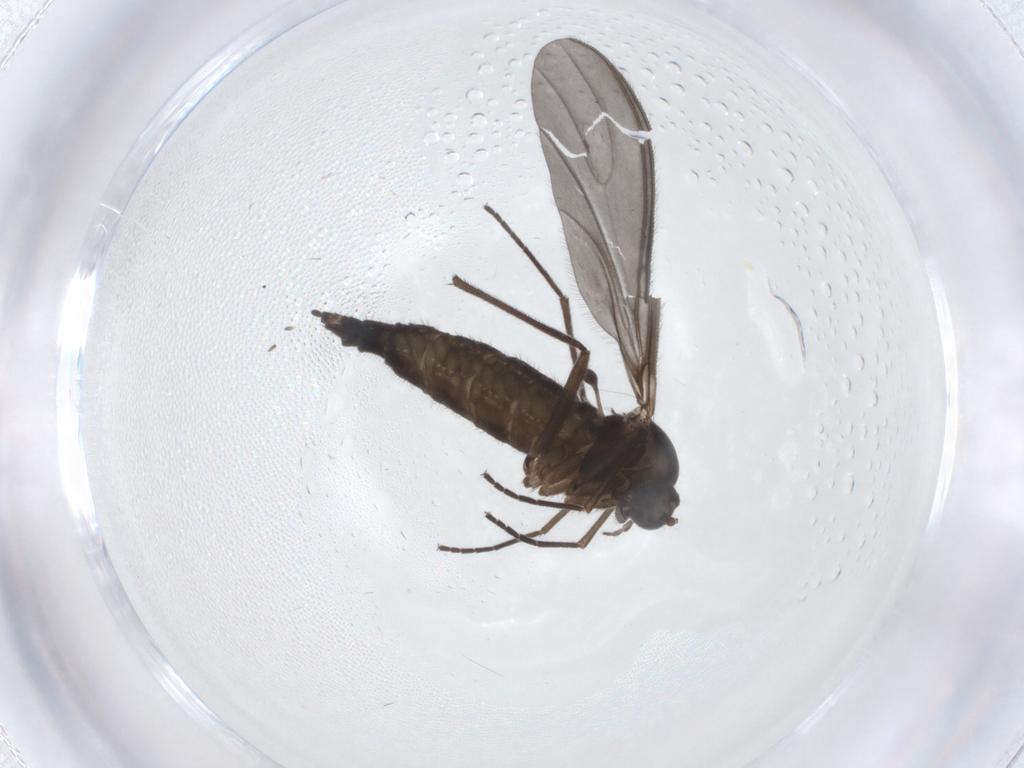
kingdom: Animalia
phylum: Arthropoda
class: Insecta
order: Diptera
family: Sciaridae
